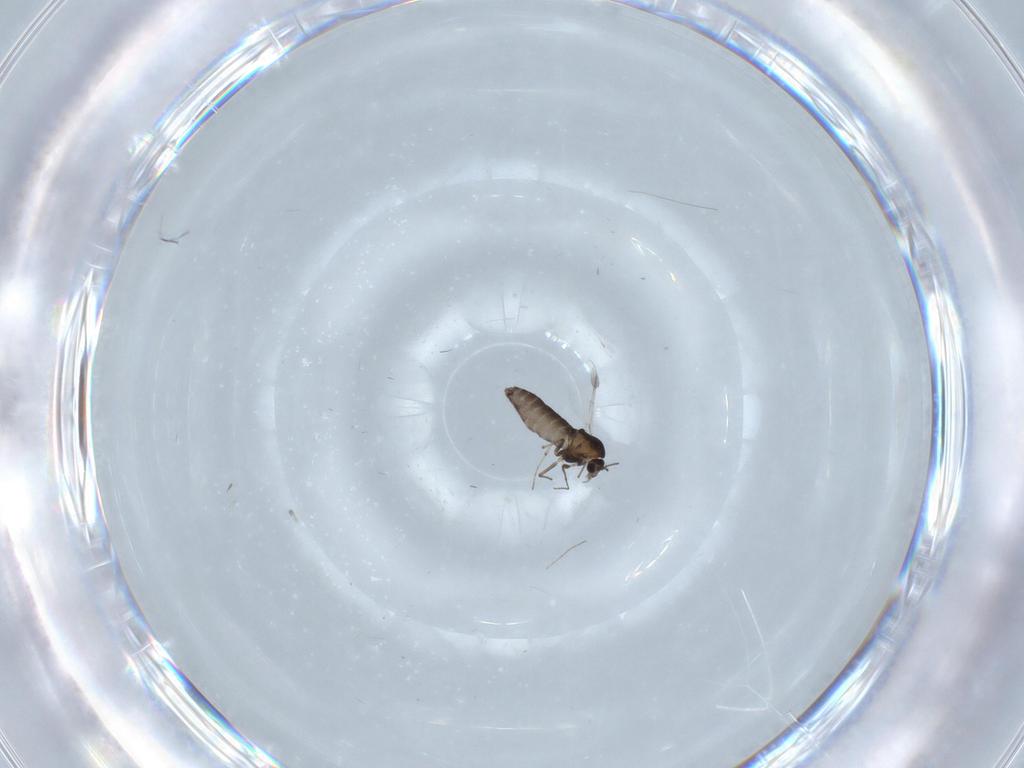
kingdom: Animalia
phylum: Arthropoda
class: Insecta
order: Diptera
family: Chironomidae
